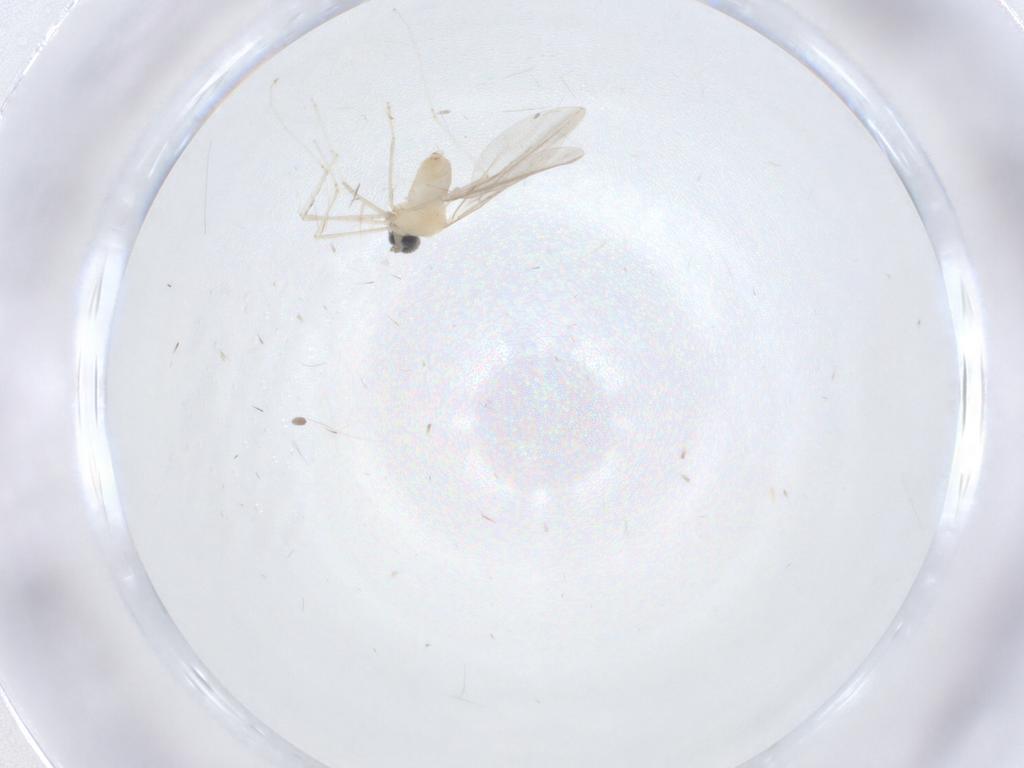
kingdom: Animalia
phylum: Arthropoda
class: Insecta
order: Diptera
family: Cecidomyiidae
